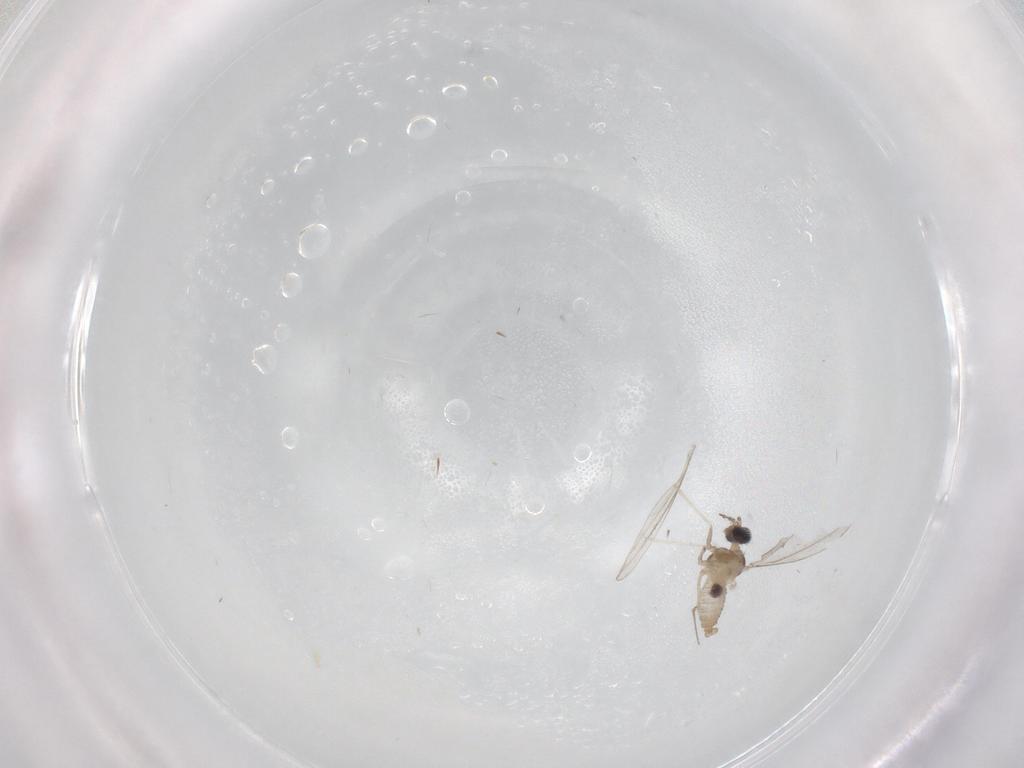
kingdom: Animalia
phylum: Arthropoda
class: Insecta
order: Diptera
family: Cecidomyiidae
